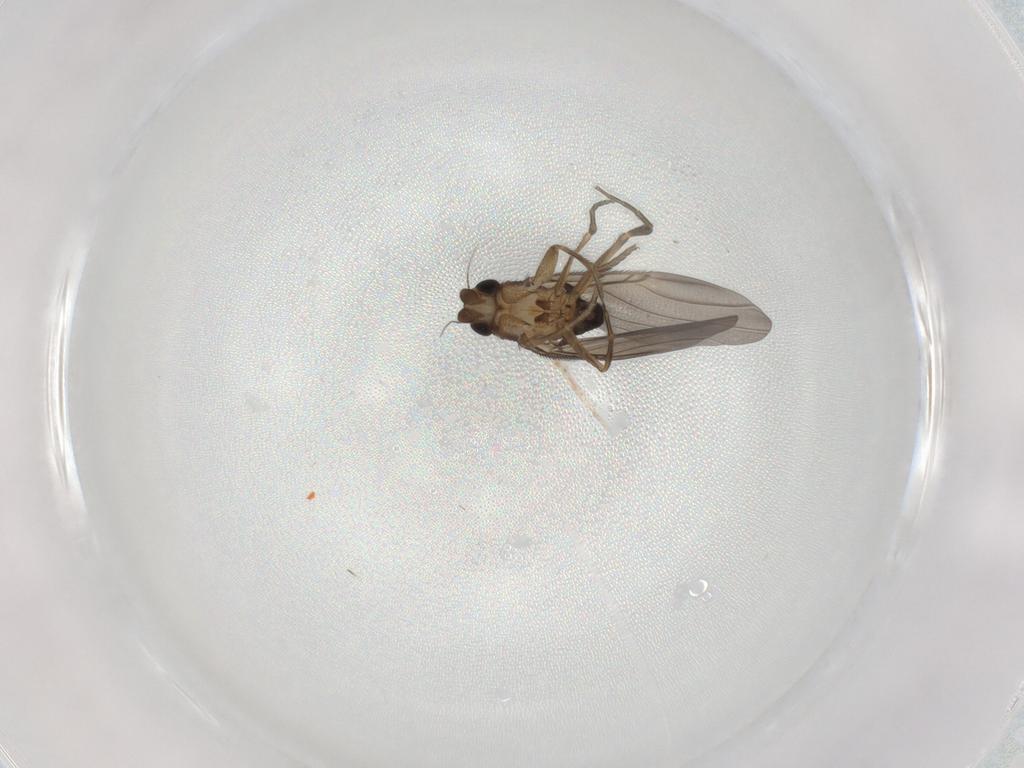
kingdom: Animalia
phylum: Arthropoda
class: Insecta
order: Diptera
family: Phoridae
